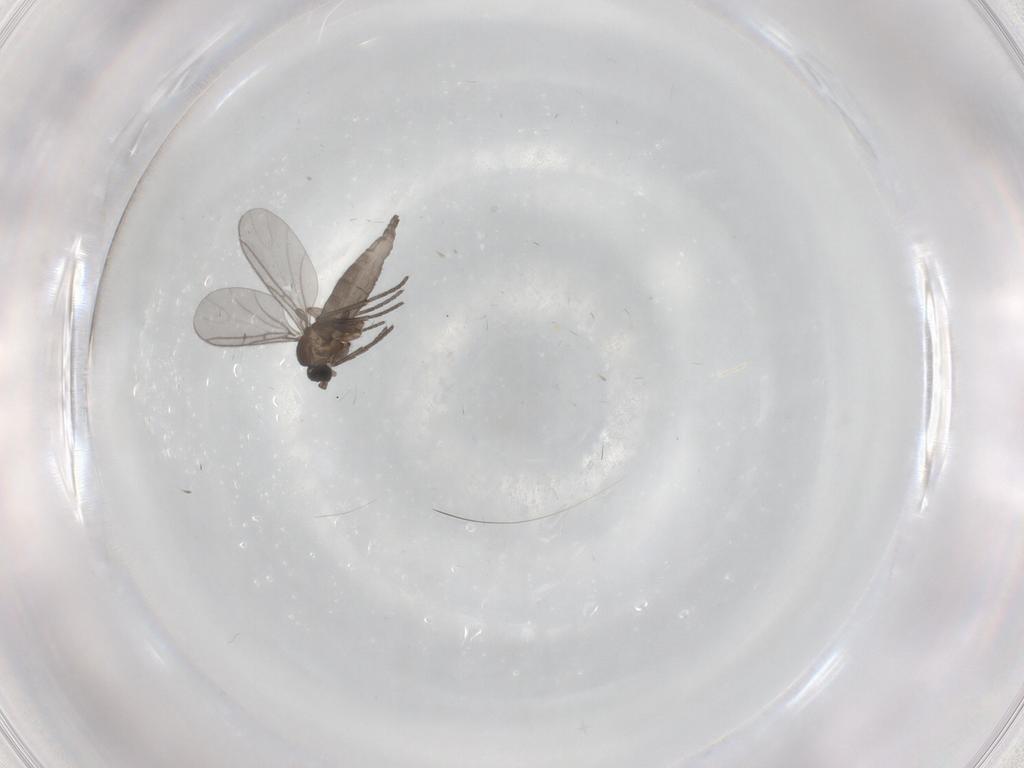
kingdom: Animalia
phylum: Arthropoda
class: Insecta
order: Diptera
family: Sciaridae
